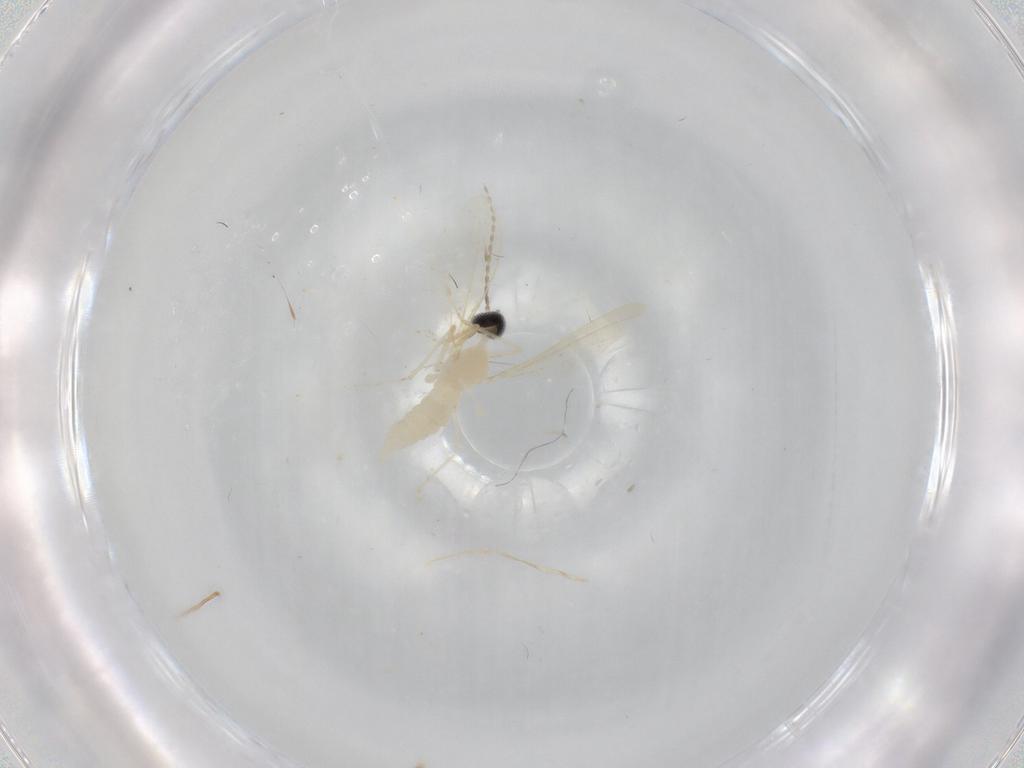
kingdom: Animalia
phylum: Arthropoda
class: Insecta
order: Diptera
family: Cecidomyiidae
